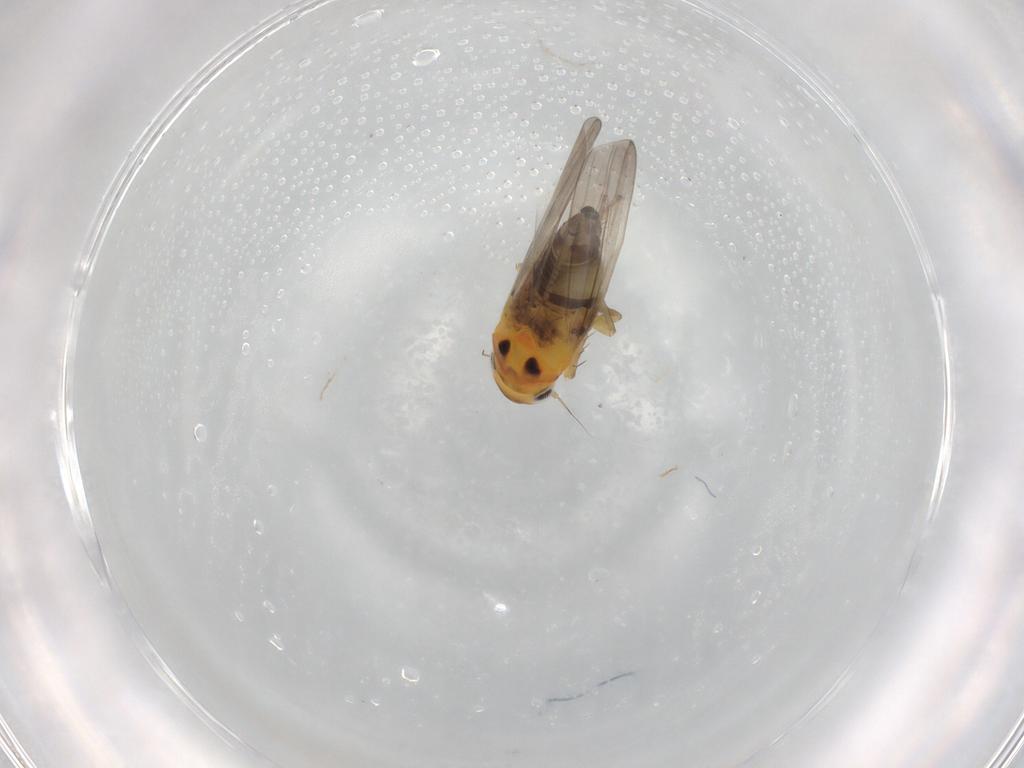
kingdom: Animalia
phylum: Arthropoda
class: Insecta
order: Hemiptera
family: Cicadellidae
